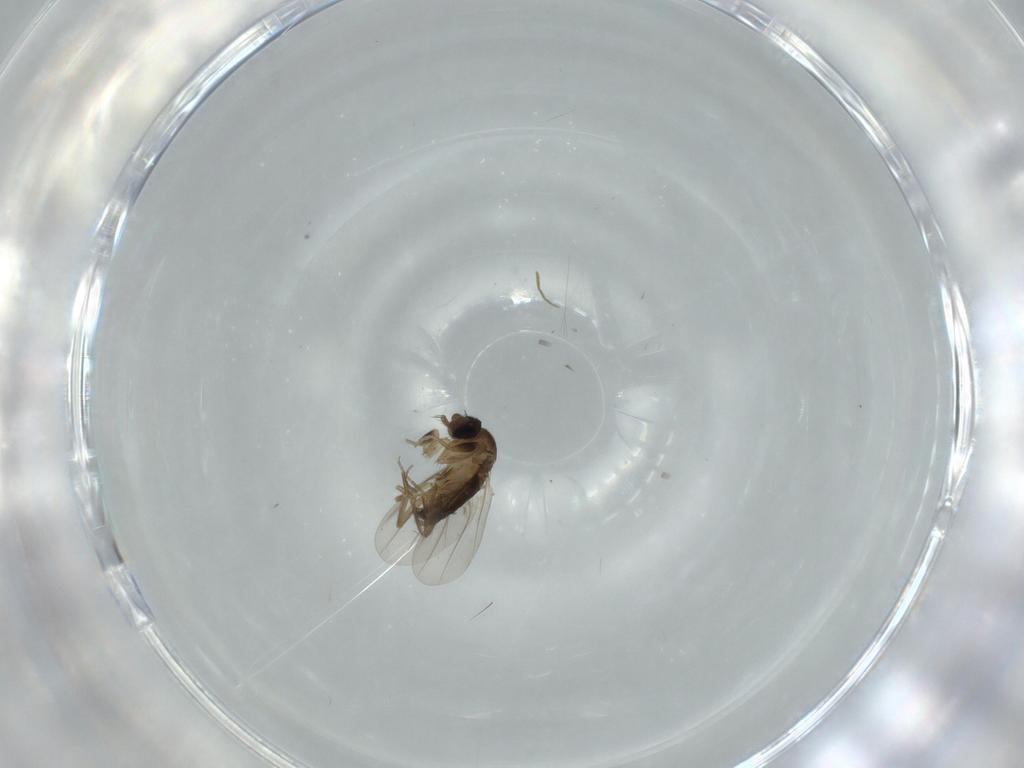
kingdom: Animalia
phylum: Arthropoda
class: Insecta
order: Diptera
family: Phoridae
